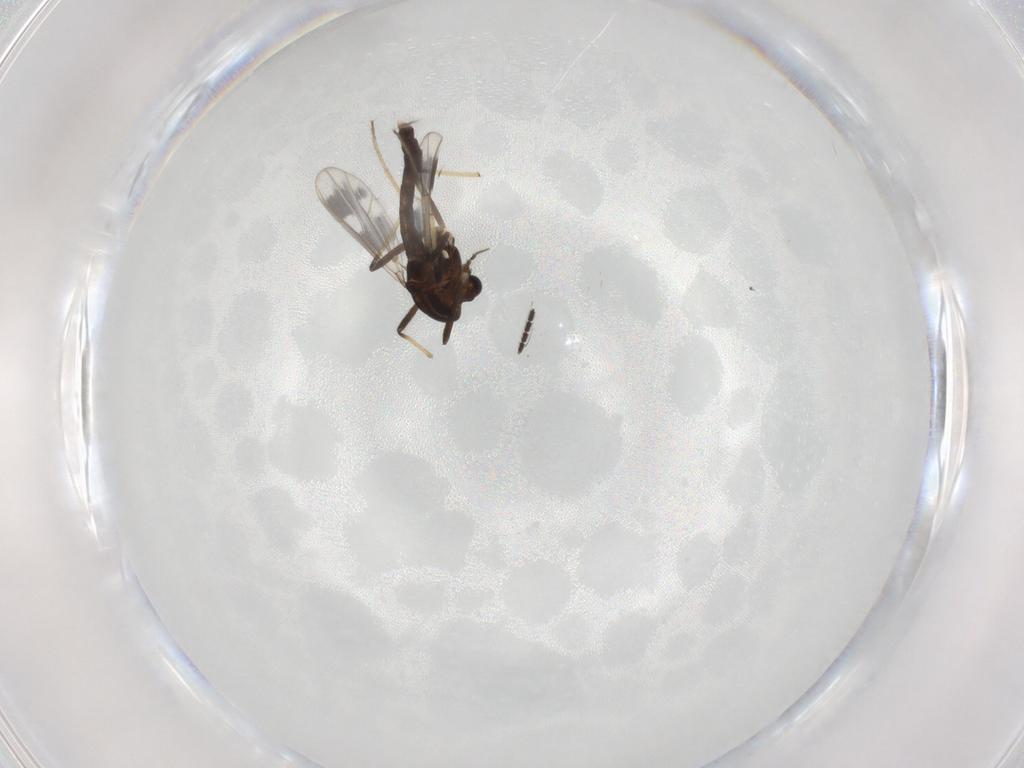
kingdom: Animalia
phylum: Arthropoda
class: Insecta
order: Diptera
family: Sciaridae
